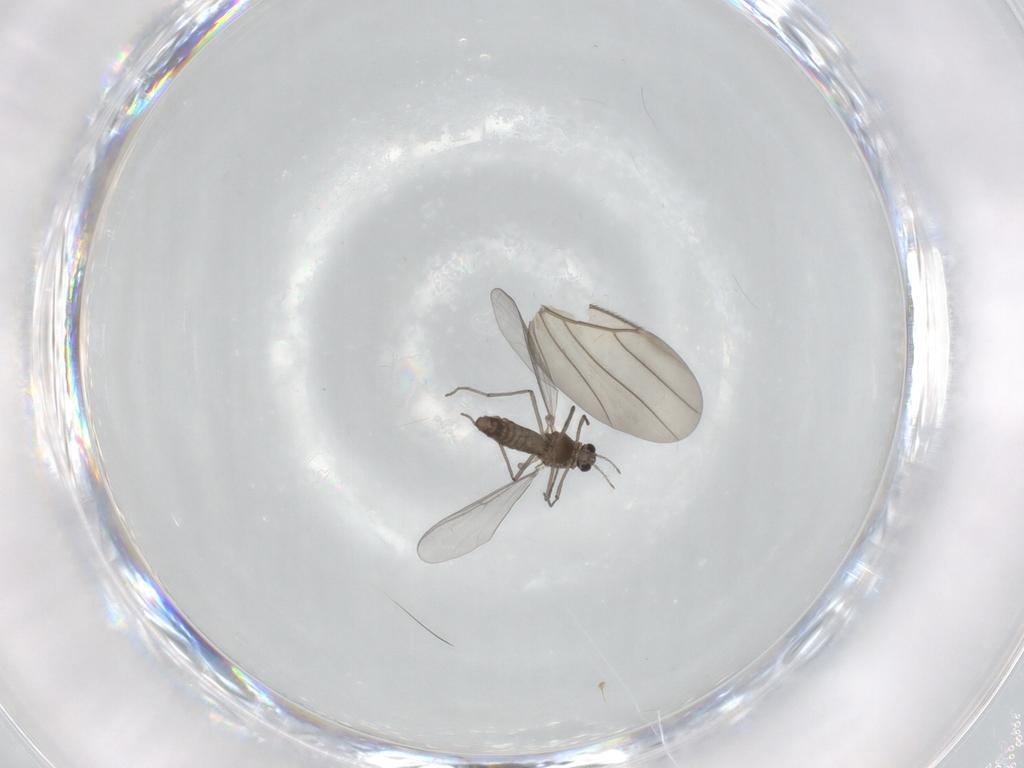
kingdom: Animalia
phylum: Arthropoda
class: Insecta
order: Diptera
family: Chironomidae
